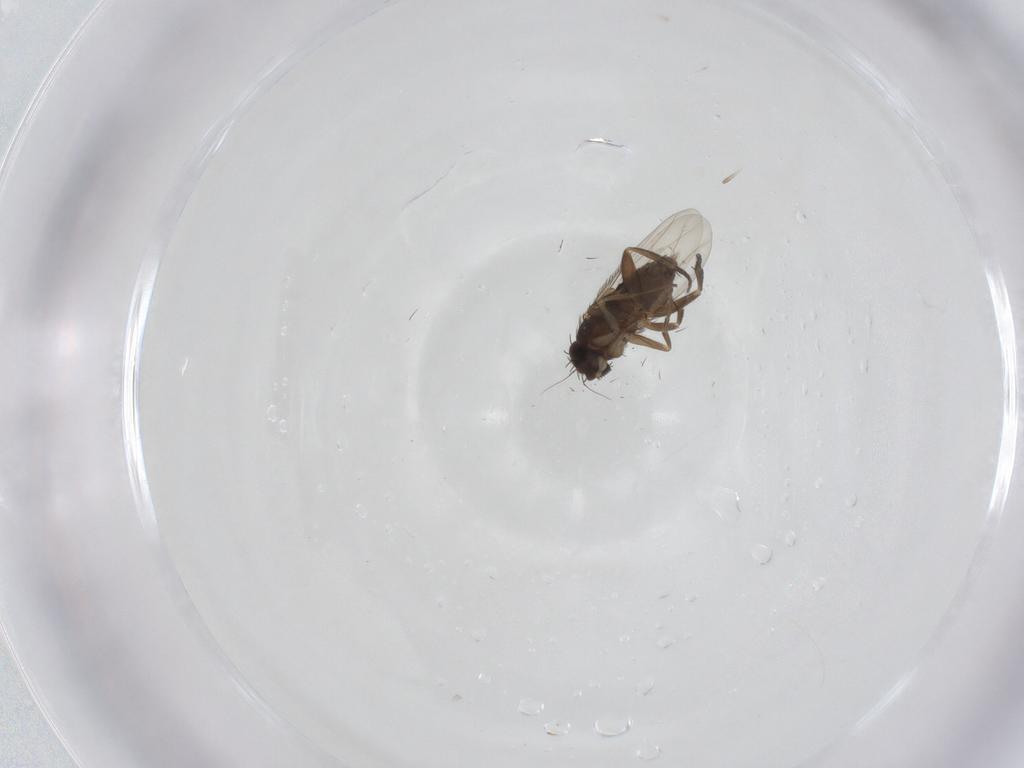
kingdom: Animalia
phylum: Arthropoda
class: Insecta
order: Diptera
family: Phoridae
